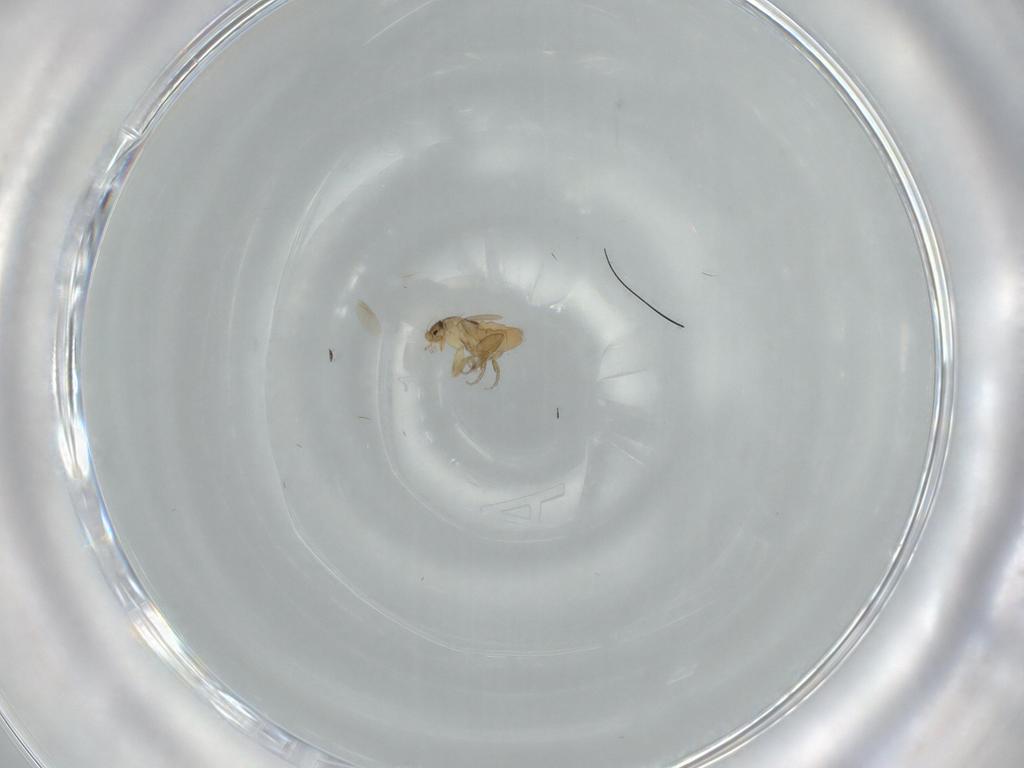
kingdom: Animalia
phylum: Arthropoda
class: Insecta
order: Diptera
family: Phoridae
